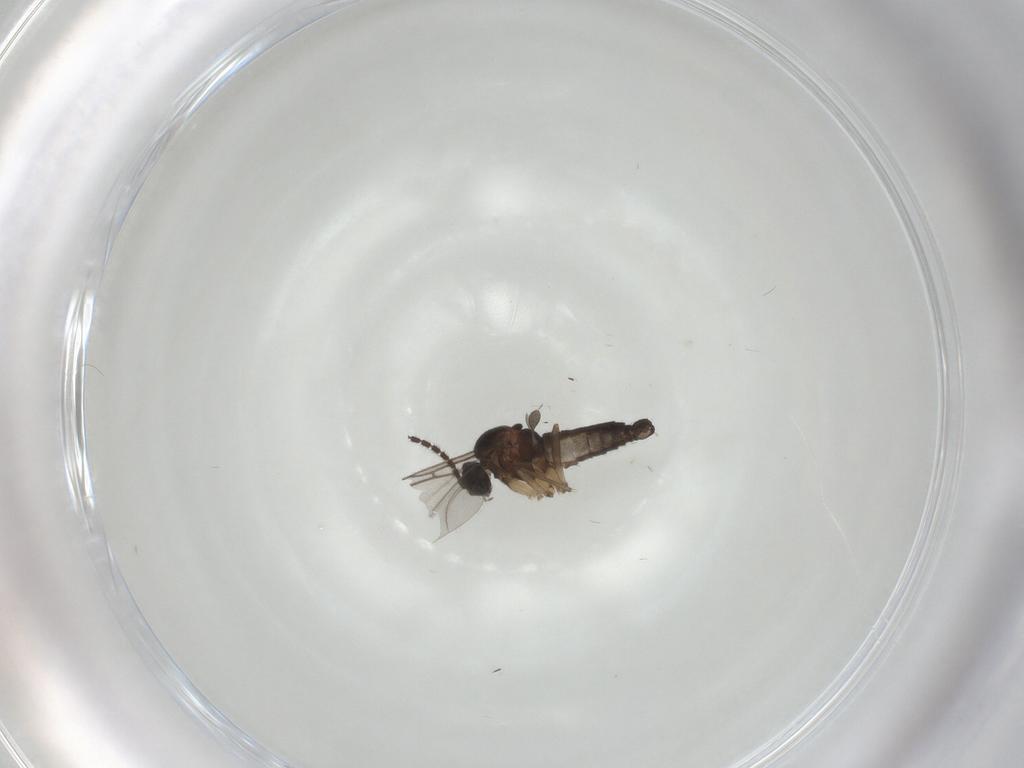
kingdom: Animalia
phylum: Arthropoda
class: Insecta
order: Diptera
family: Sciaridae
